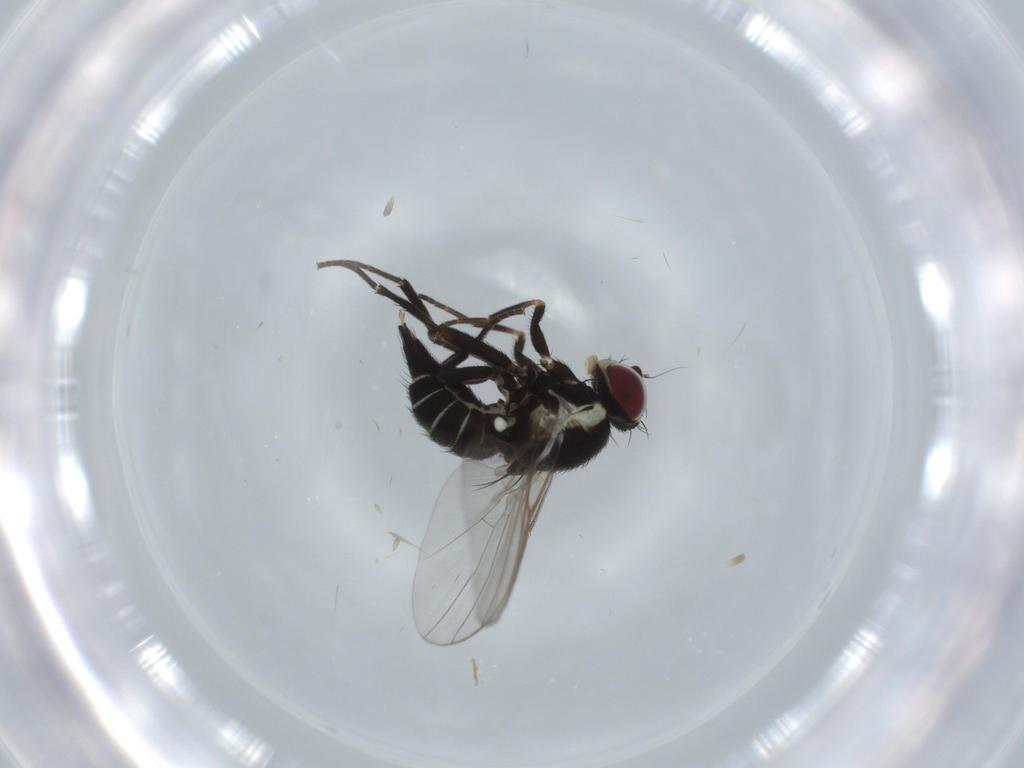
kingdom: Animalia
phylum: Arthropoda
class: Insecta
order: Diptera
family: Agromyzidae
